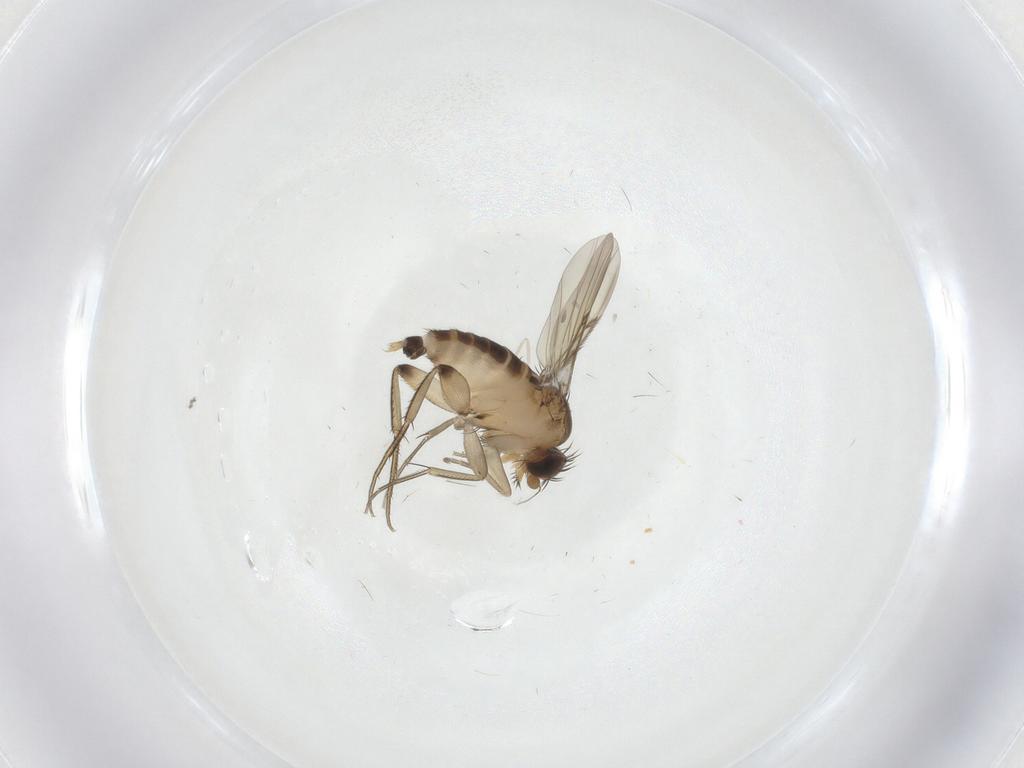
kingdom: Animalia
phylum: Arthropoda
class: Insecta
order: Diptera
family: Cecidomyiidae
